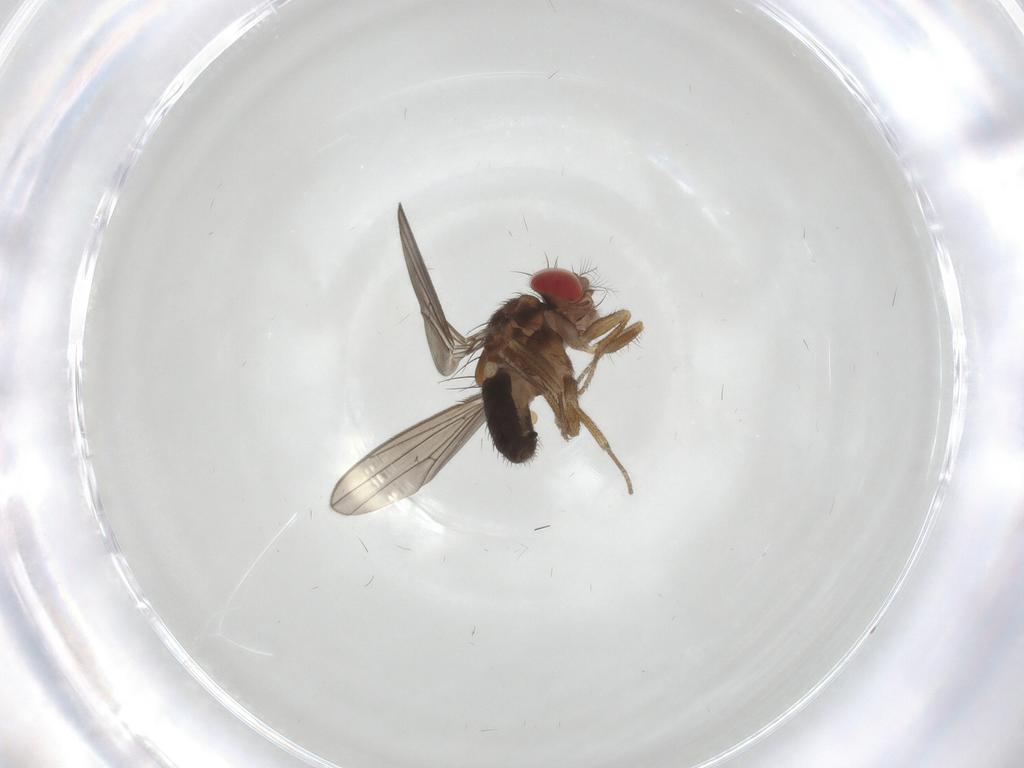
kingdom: Animalia
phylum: Arthropoda
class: Insecta
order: Diptera
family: Drosophilidae
